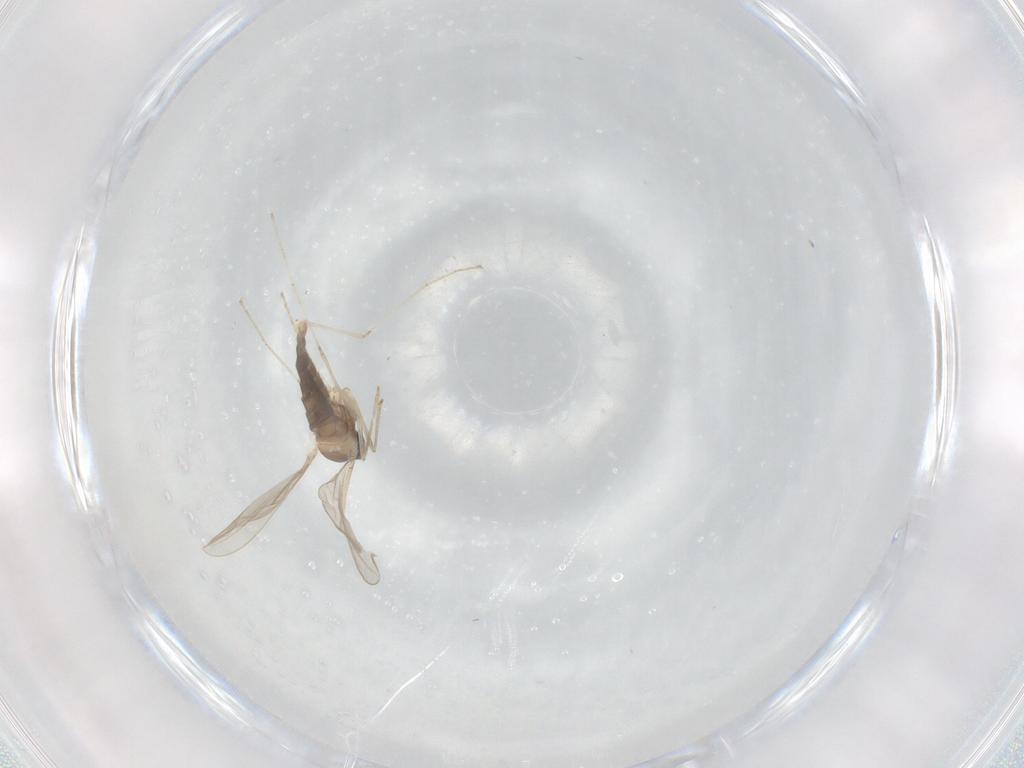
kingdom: Animalia
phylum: Arthropoda
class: Insecta
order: Diptera
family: Cecidomyiidae
